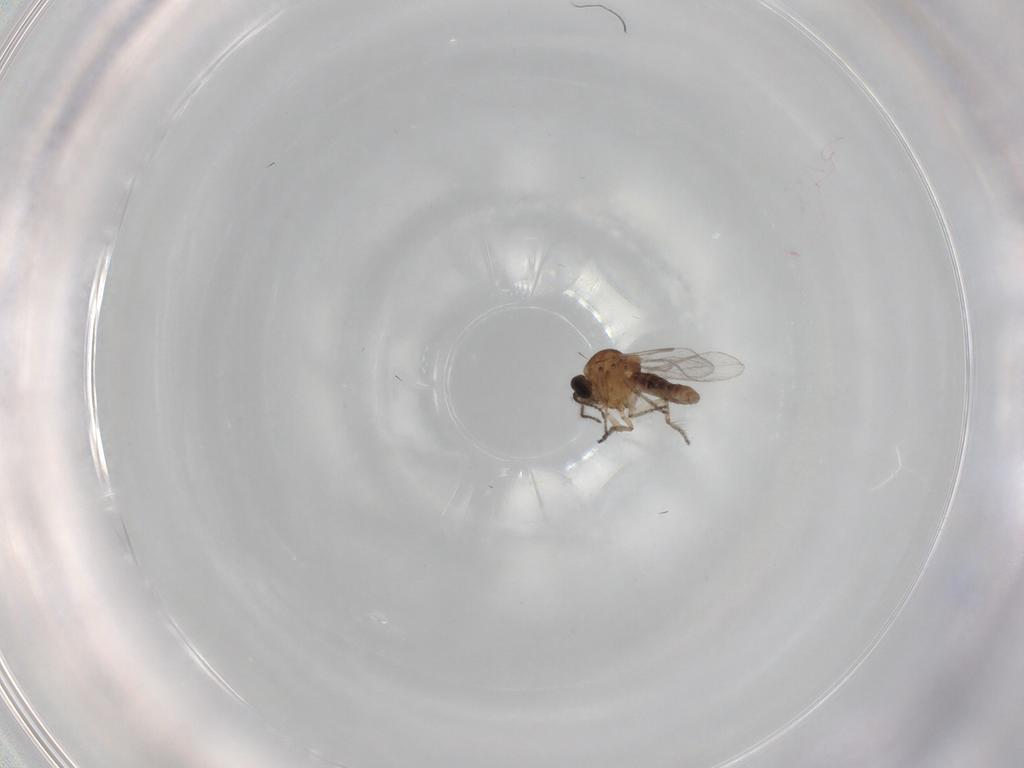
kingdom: Animalia
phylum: Arthropoda
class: Insecta
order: Diptera
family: Ceratopogonidae
